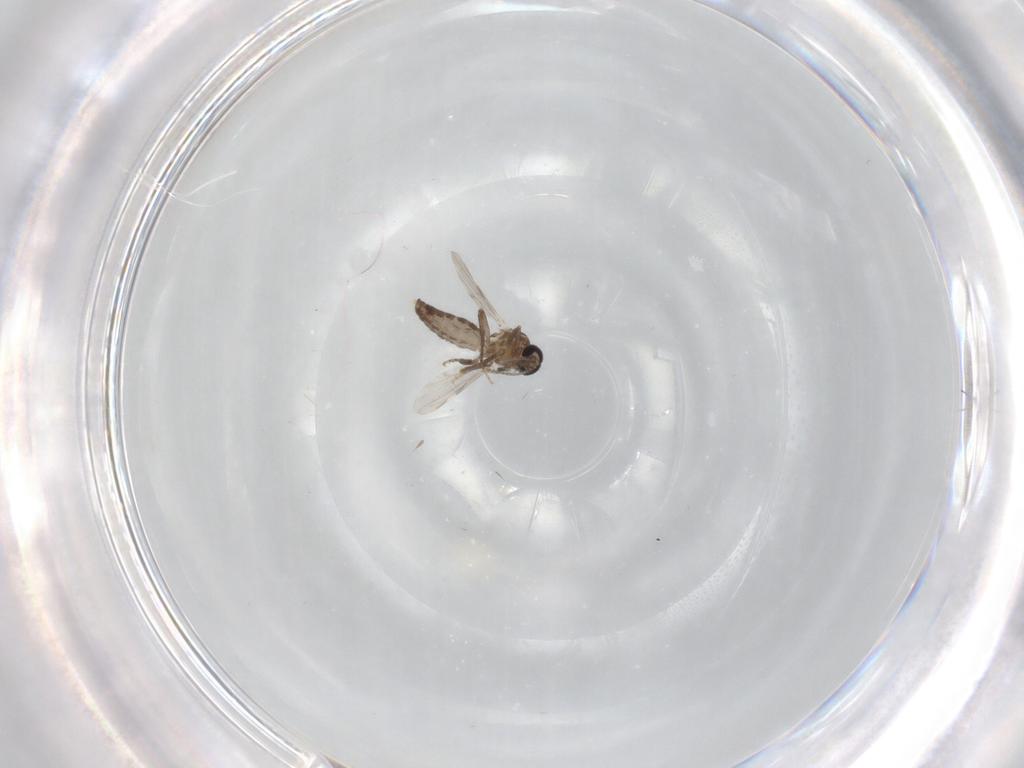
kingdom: Animalia
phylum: Arthropoda
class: Insecta
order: Diptera
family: Ceratopogonidae
